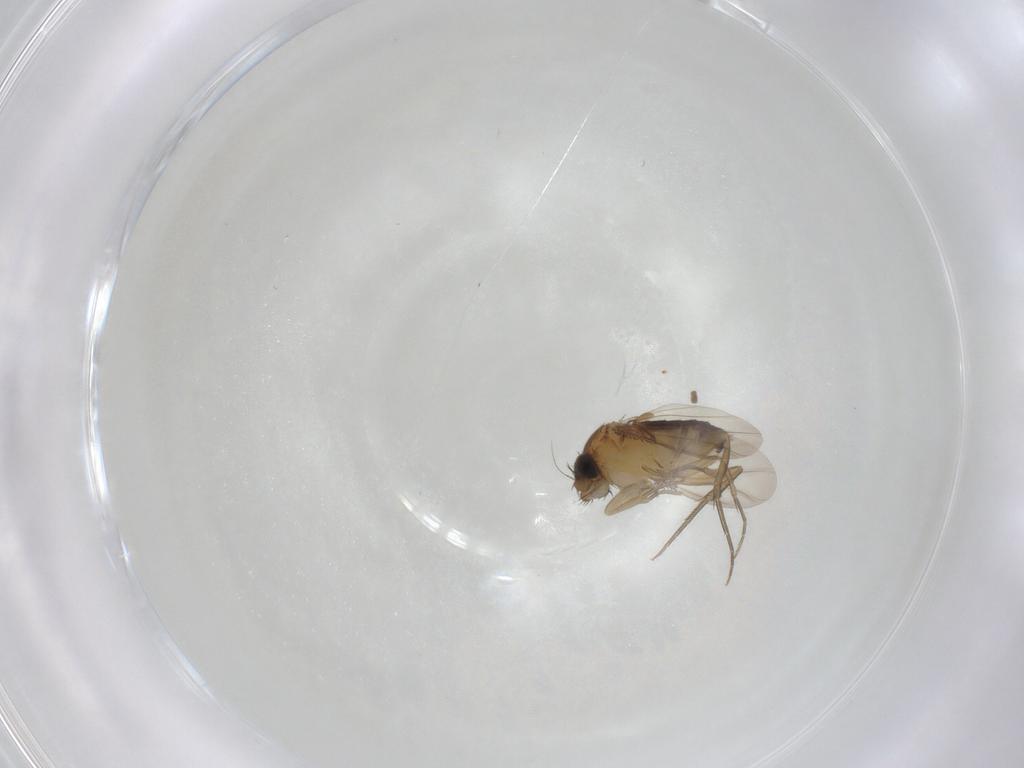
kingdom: Animalia
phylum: Arthropoda
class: Insecta
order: Diptera
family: Phoridae
